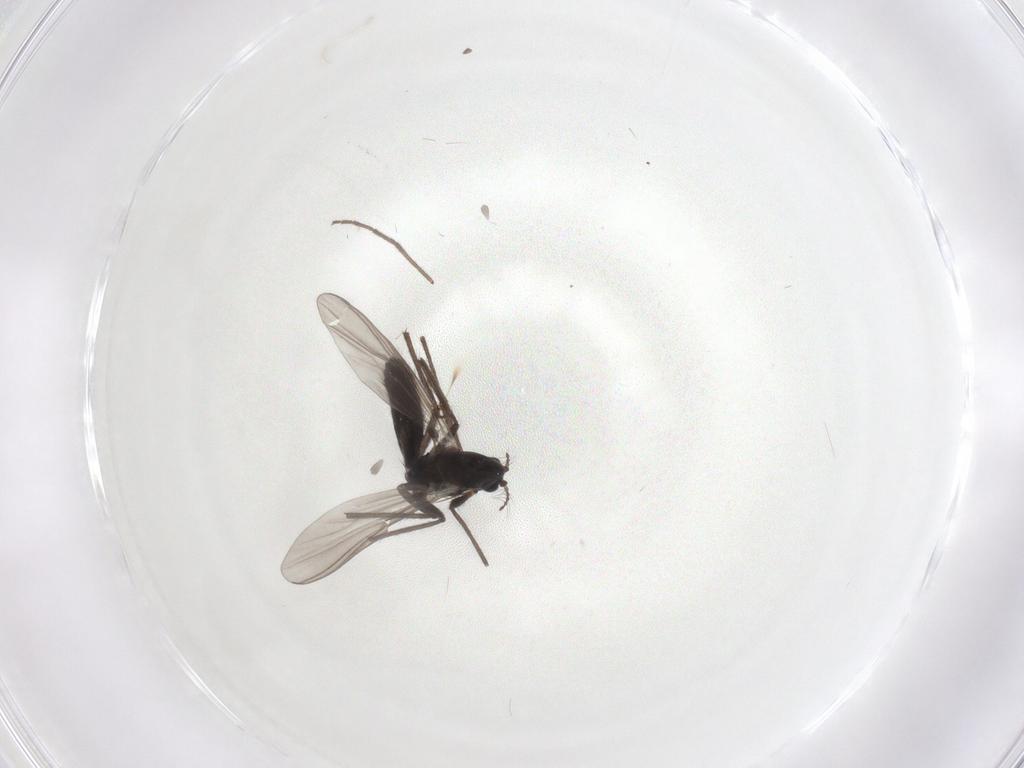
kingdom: Animalia
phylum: Arthropoda
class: Insecta
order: Diptera
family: Chironomidae
